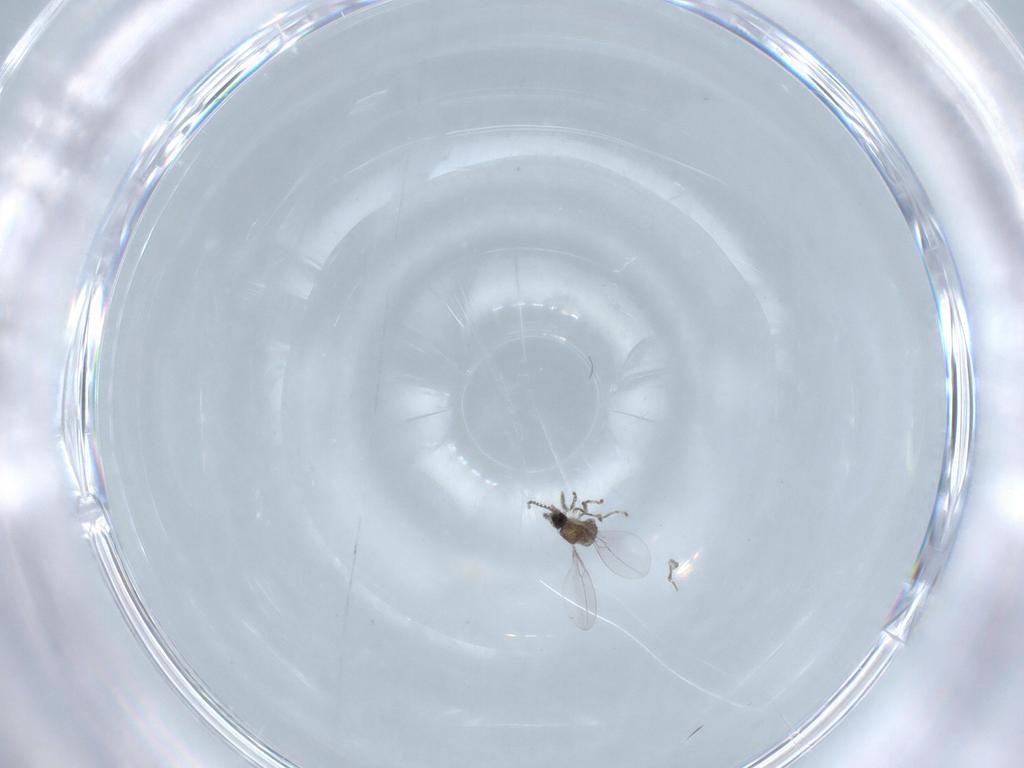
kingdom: Animalia
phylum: Arthropoda
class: Insecta
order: Diptera
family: Cecidomyiidae
